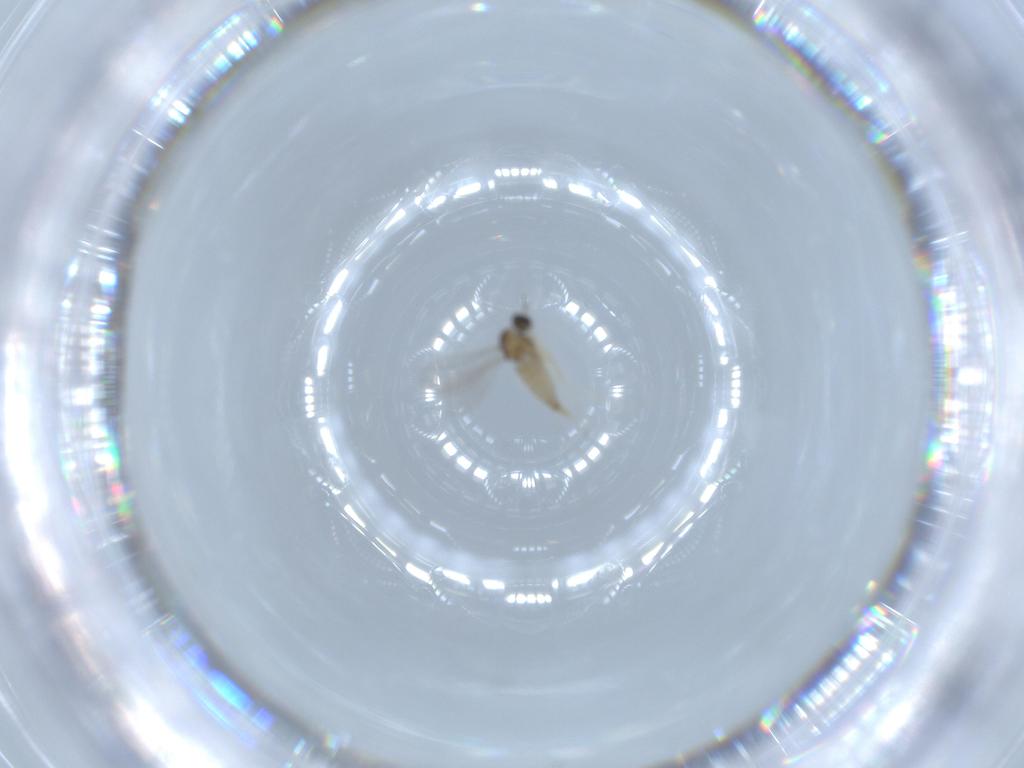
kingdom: Animalia
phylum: Arthropoda
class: Insecta
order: Diptera
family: Cecidomyiidae
